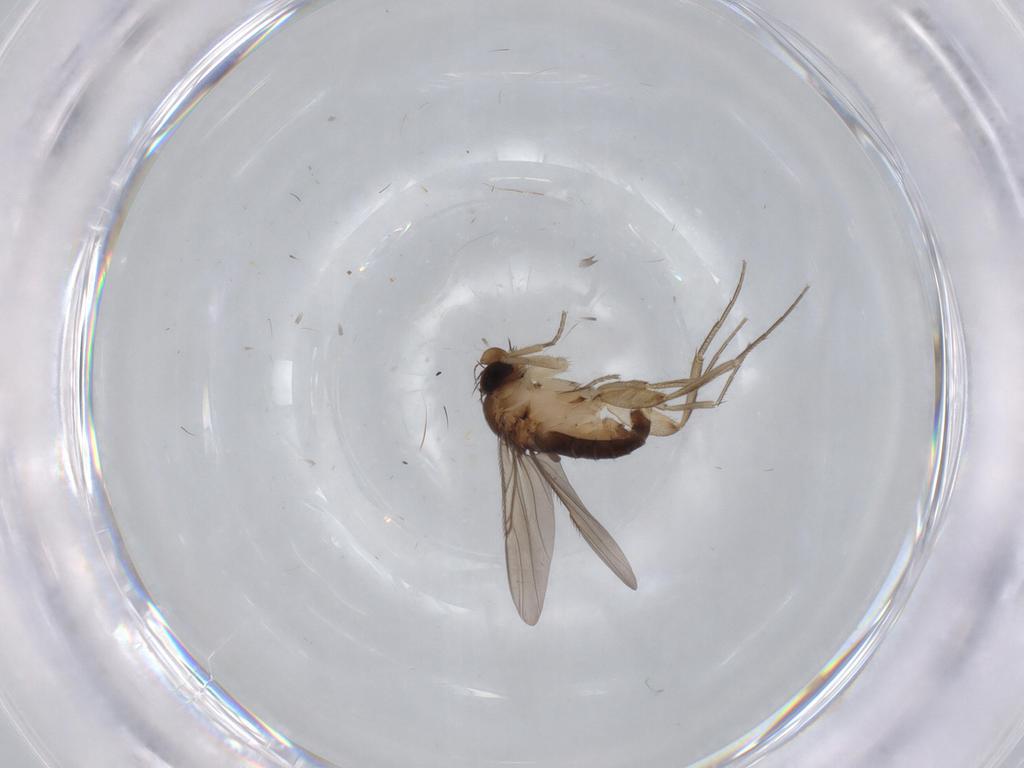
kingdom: Animalia
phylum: Arthropoda
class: Insecta
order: Diptera
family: Phoridae
